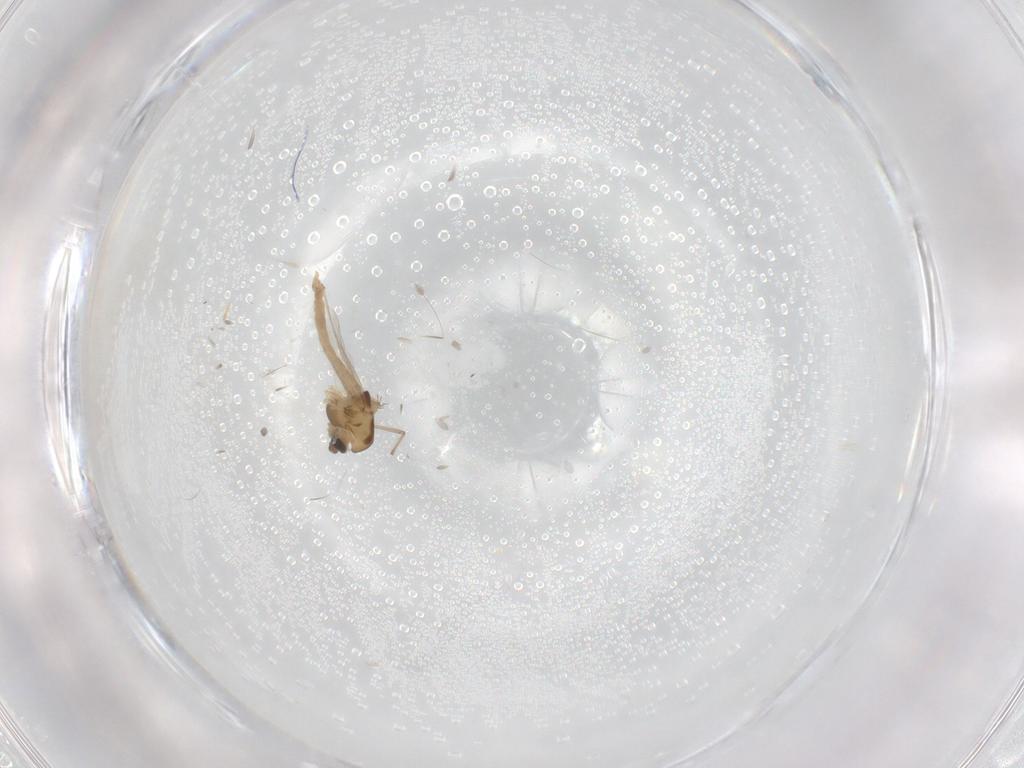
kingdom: Animalia
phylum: Arthropoda
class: Insecta
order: Diptera
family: Chironomidae
